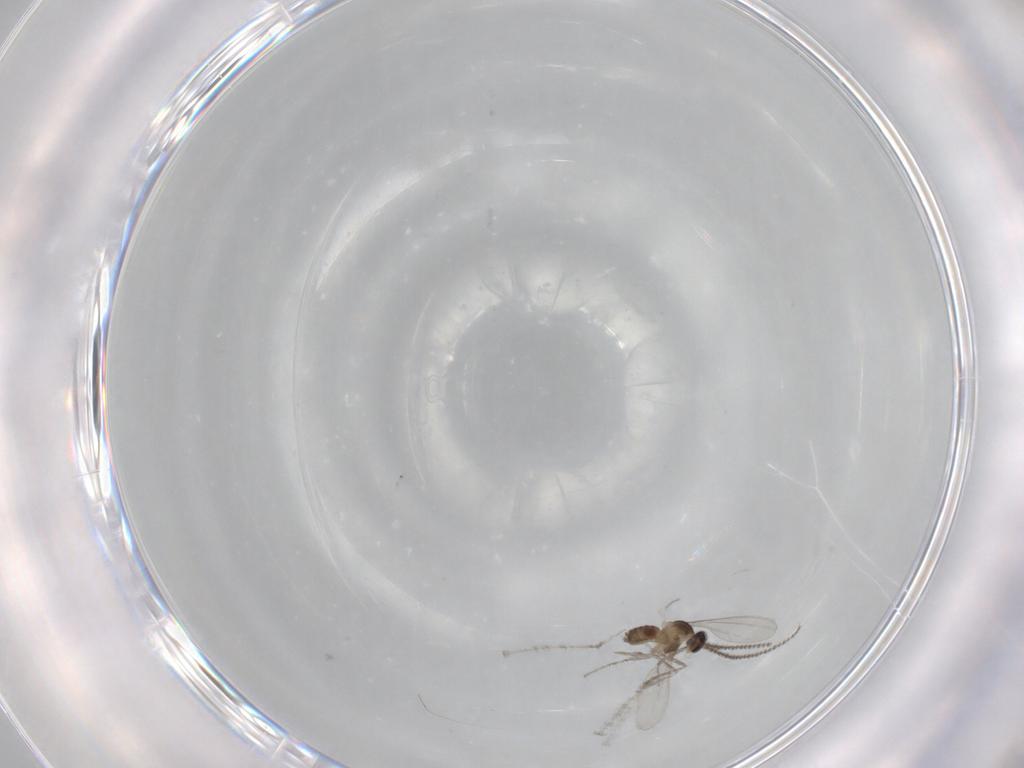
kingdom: Animalia
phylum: Arthropoda
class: Insecta
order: Diptera
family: Cecidomyiidae
